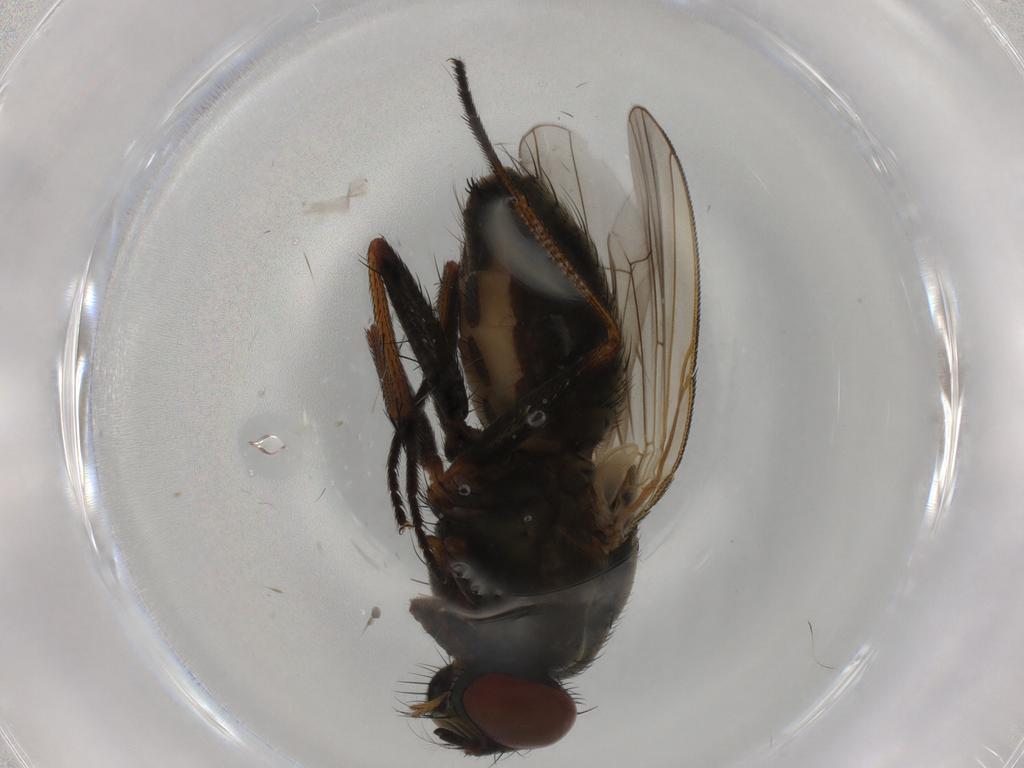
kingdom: Animalia
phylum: Arthropoda
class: Insecta
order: Diptera
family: Muscidae
